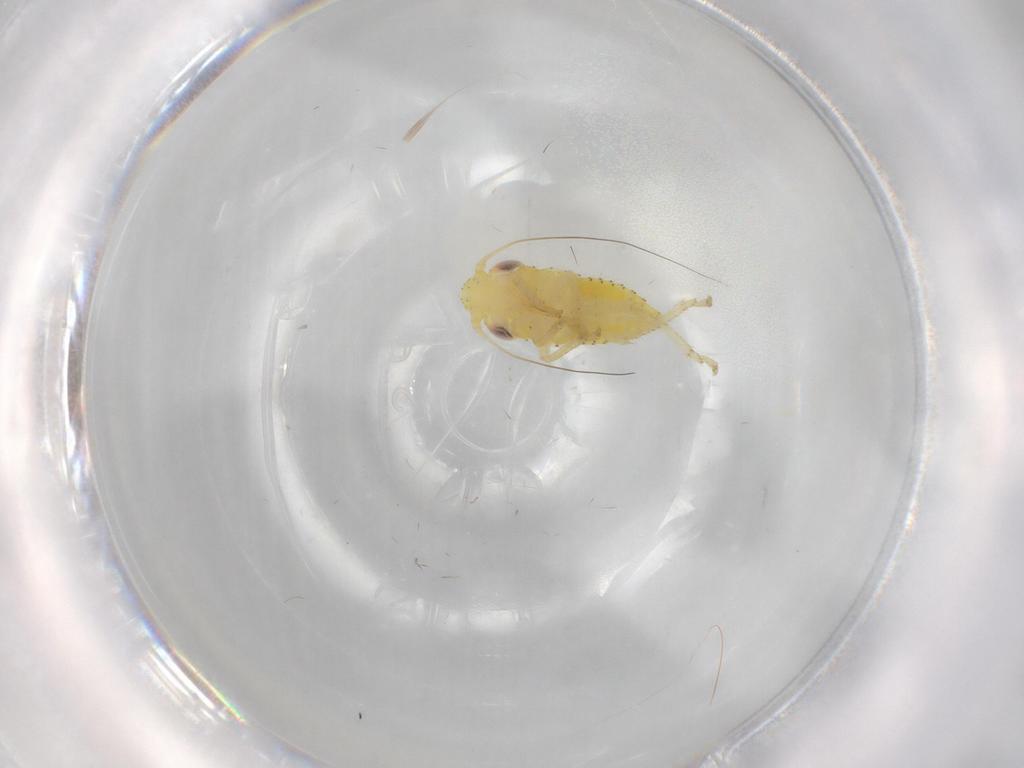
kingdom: Animalia
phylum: Arthropoda
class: Insecta
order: Hemiptera
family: Cicadellidae
